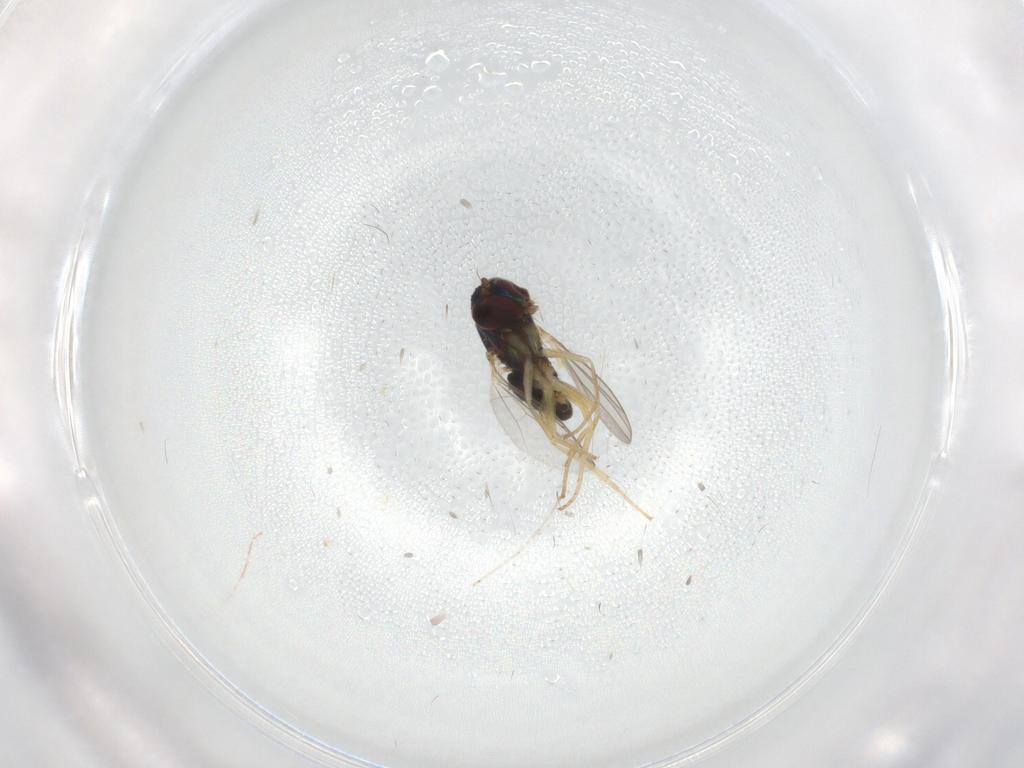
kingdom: Animalia
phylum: Arthropoda
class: Insecta
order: Diptera
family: Dolichopodidae
